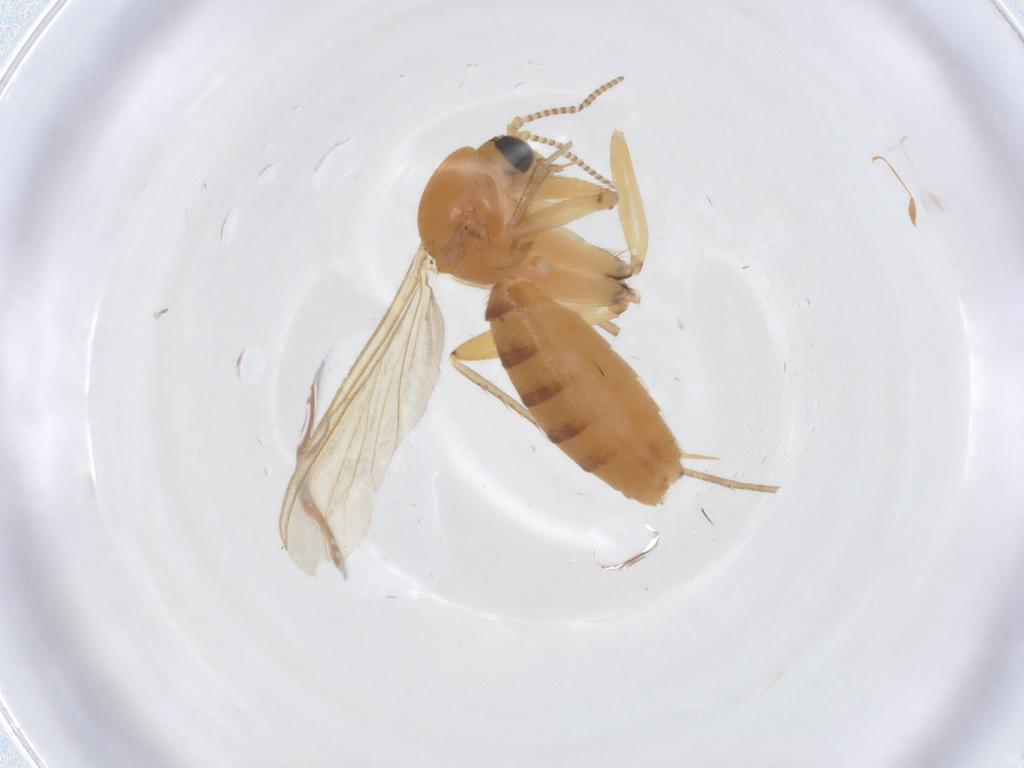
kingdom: Animalia
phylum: Arthropoda
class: Insecta
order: Diptera
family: Mycetophilidae
